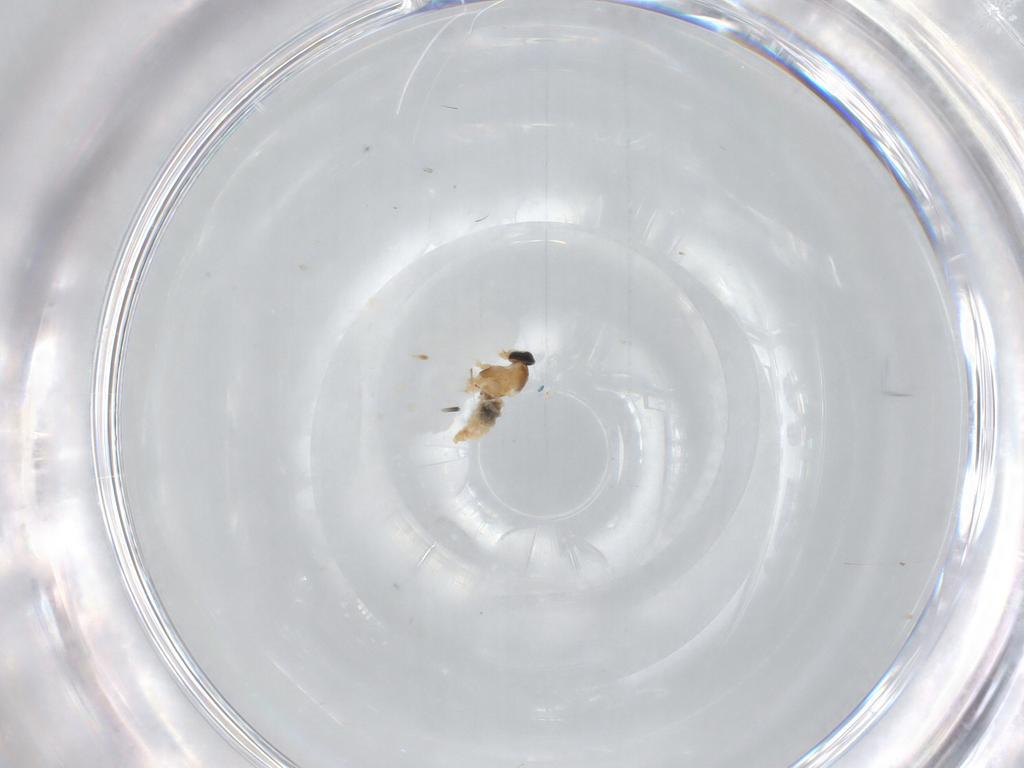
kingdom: Animalia
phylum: Arthropoda
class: Insecta
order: Diptera
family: Cecidomyiidae
